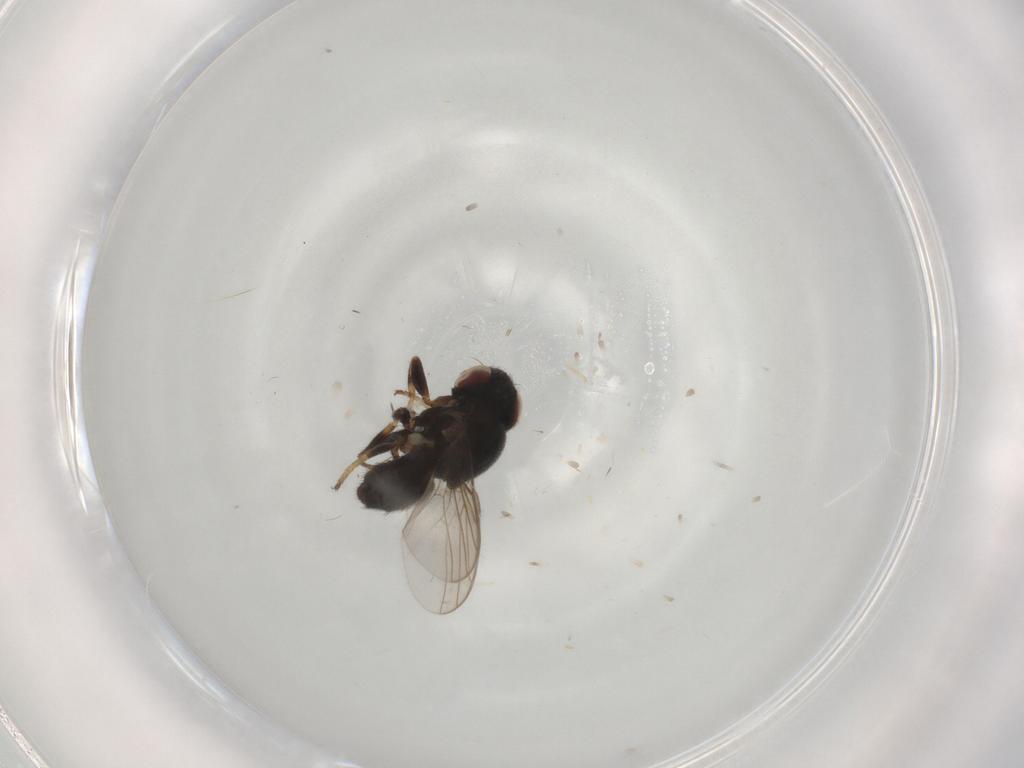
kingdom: Animalia
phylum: Arthropoda
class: Insecta
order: Diptera
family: Chloropidae
